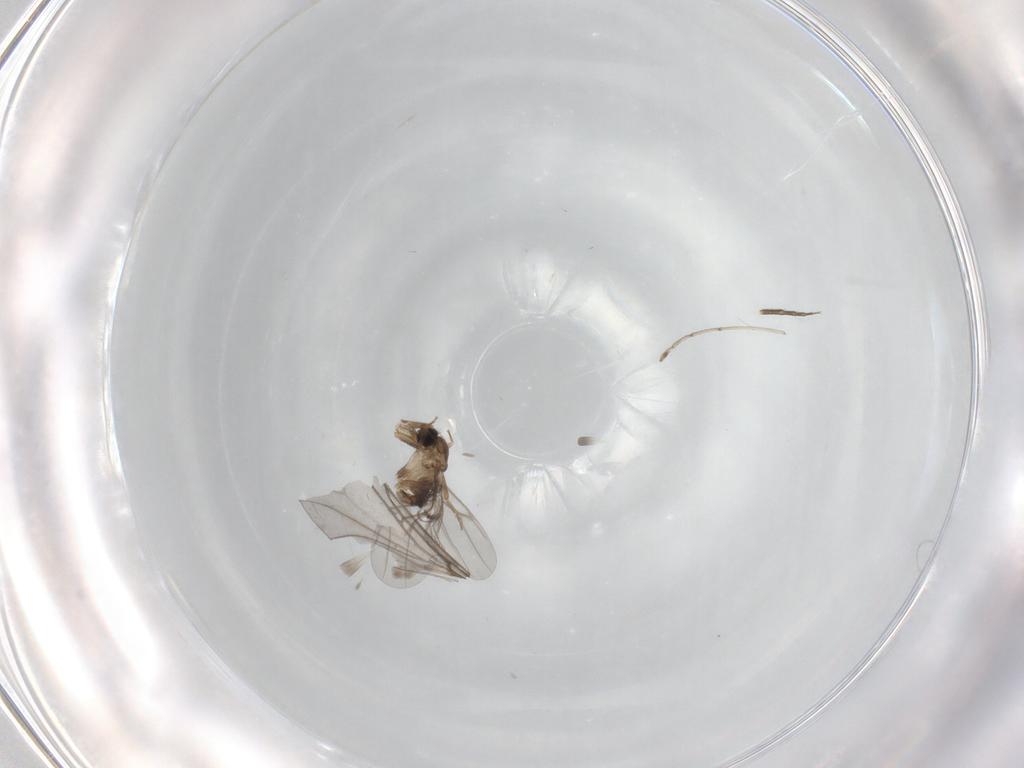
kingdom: Animalia
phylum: Arthropoda
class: Insecta
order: Diptera
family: Chironomidae
